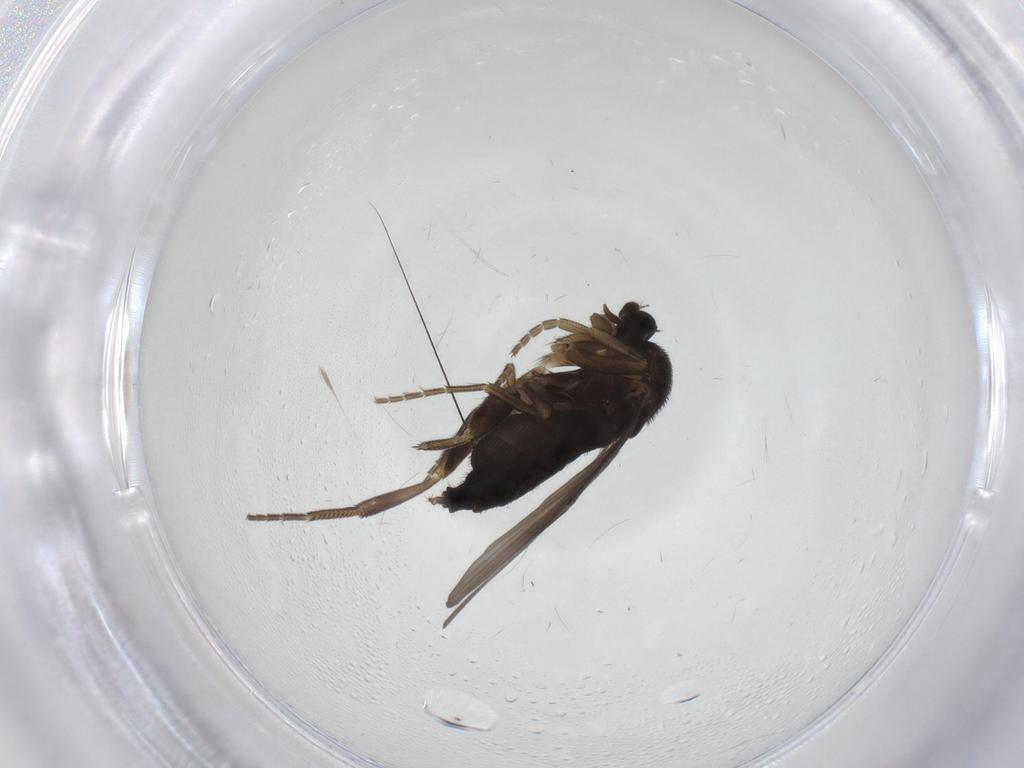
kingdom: Animalia
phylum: Arthropoda
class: Insecta
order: Diptera
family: Phoridae
